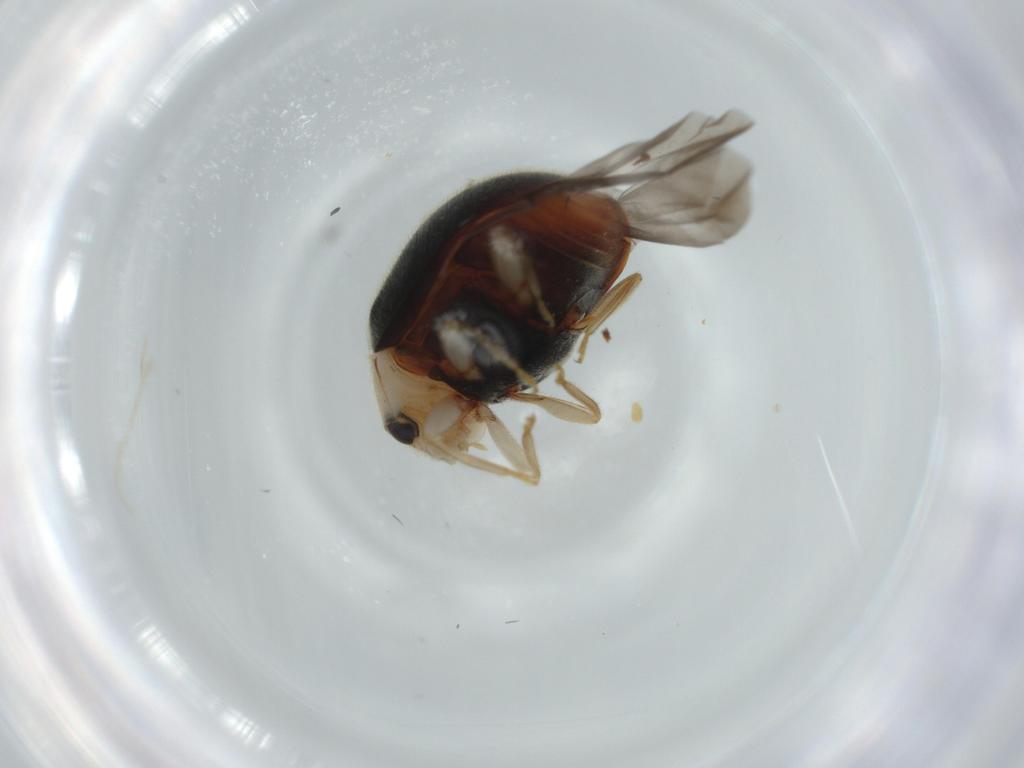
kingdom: Animalia
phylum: Arthropoda
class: Insecta
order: Coleoptera
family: Coccinellidae
